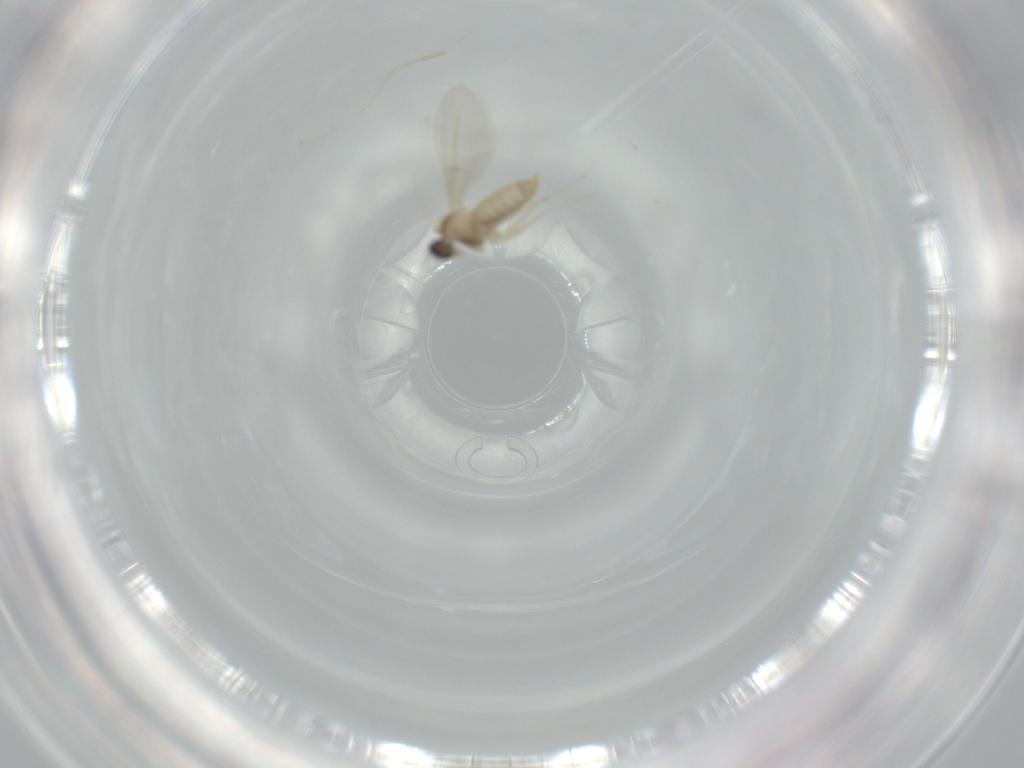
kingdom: Animalia
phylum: Arthropoda
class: Insecta
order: Diptera
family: Cecidomyiidae
